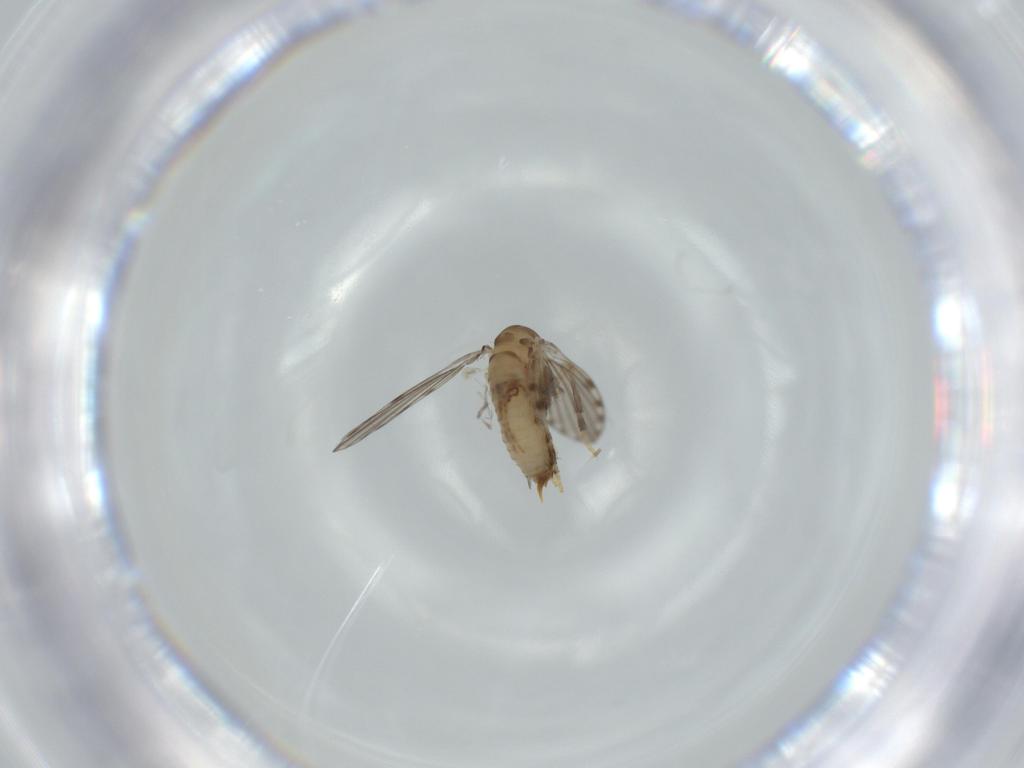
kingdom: Animalia
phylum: Arthropoda
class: Insecta
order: Diptera
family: Psychodidae
